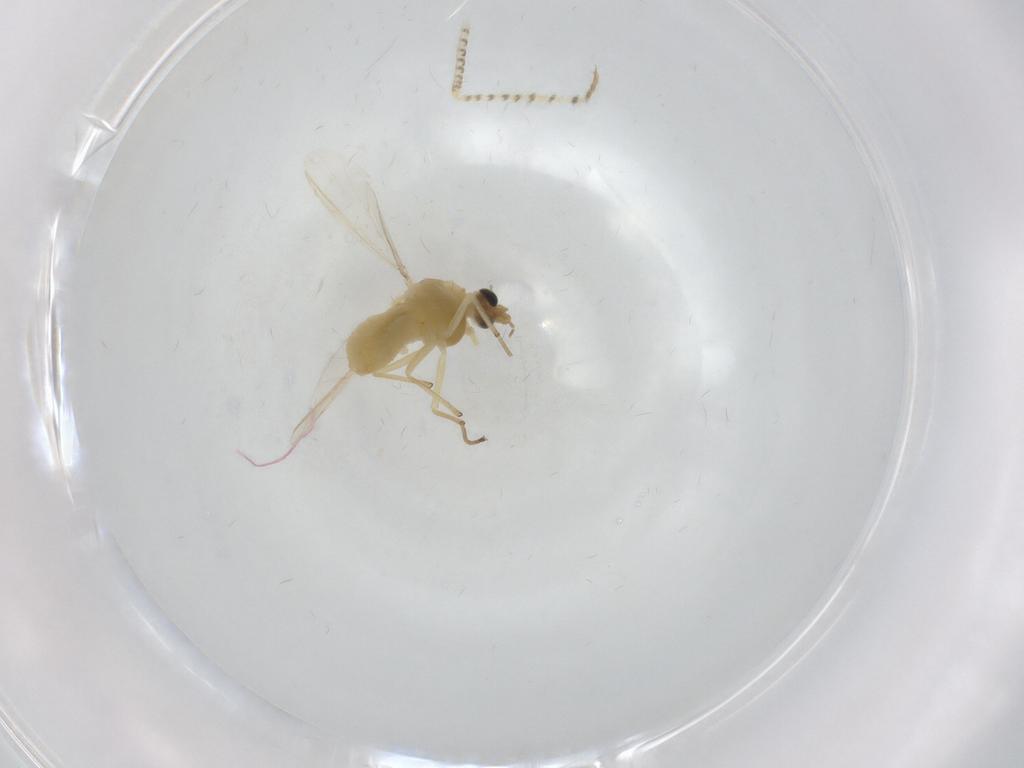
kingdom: Animalia
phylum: Arthropoda
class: Insecta
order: Diptera
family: Chironomidae
